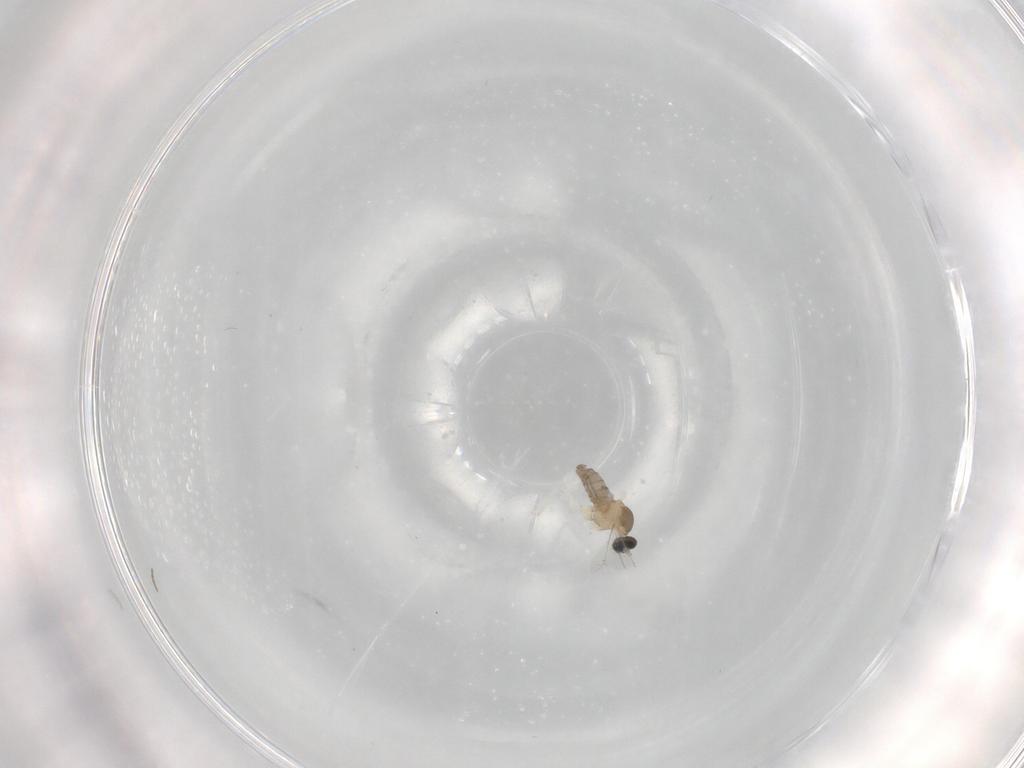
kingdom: Animalia
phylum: Arthropoda
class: Insecta
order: Diptera
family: Cecidomyiidae
